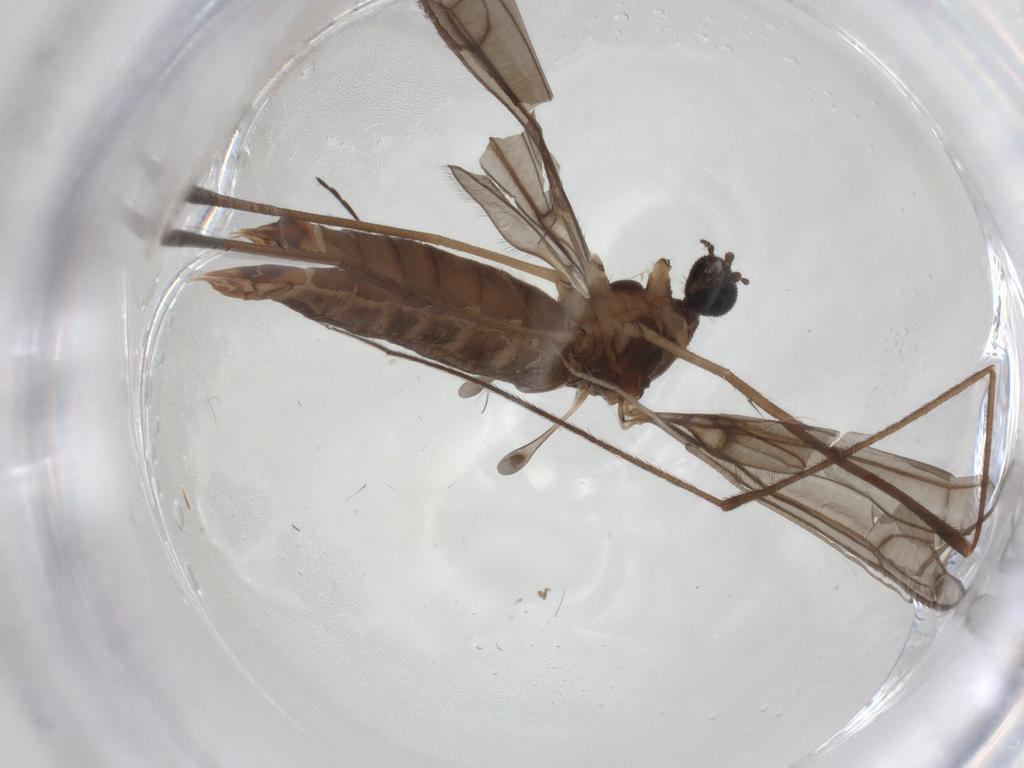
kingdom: Animalia
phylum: Arthropoda
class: Insecta
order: Diptera
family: Limoniidae
